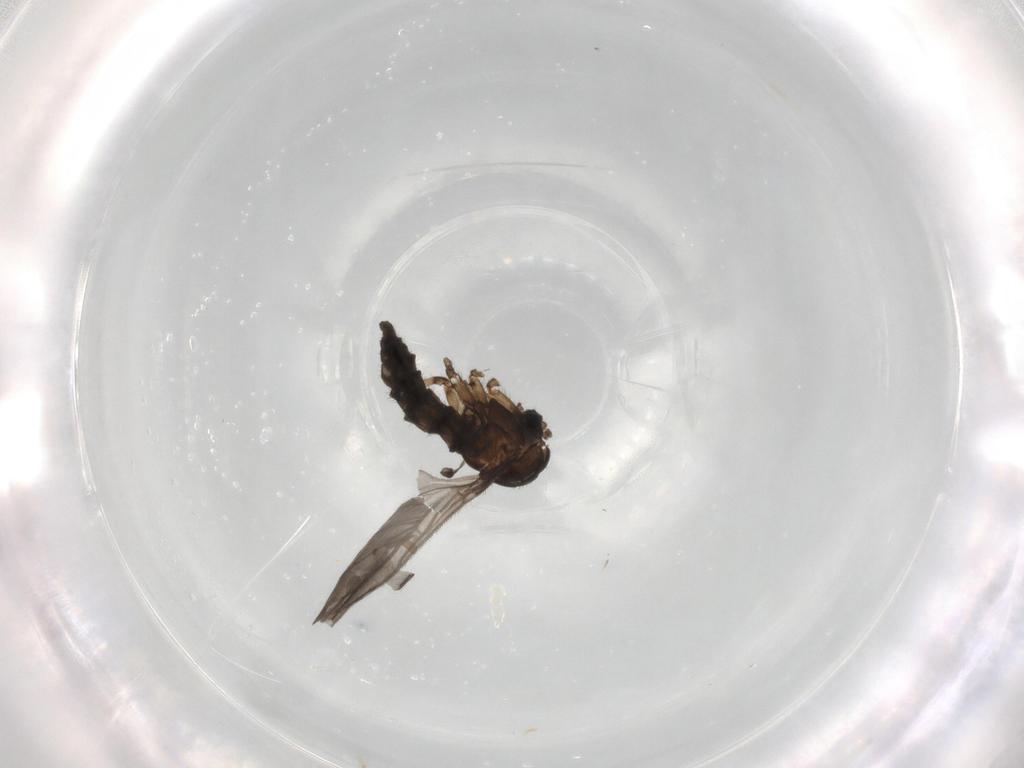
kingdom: Animalia
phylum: Arthropoda
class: Insecta
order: Diptera
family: Sciaridae
